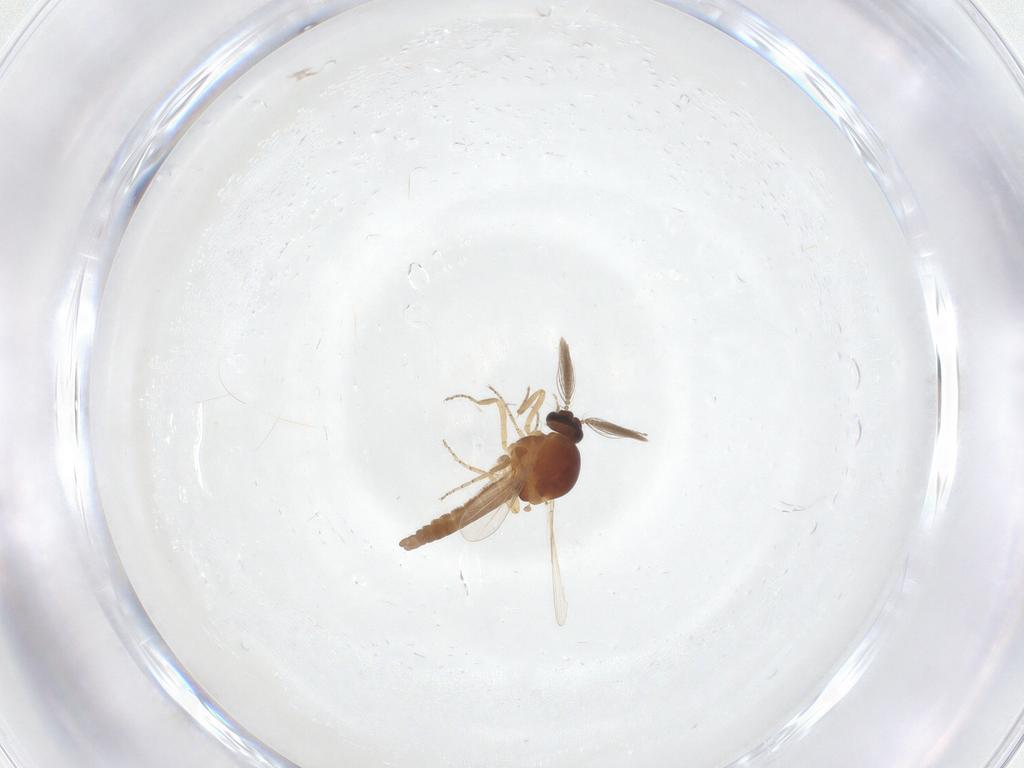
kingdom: Animalia
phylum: Arthropoda
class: Insecta
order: Diptera
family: Ceratopogonidae
